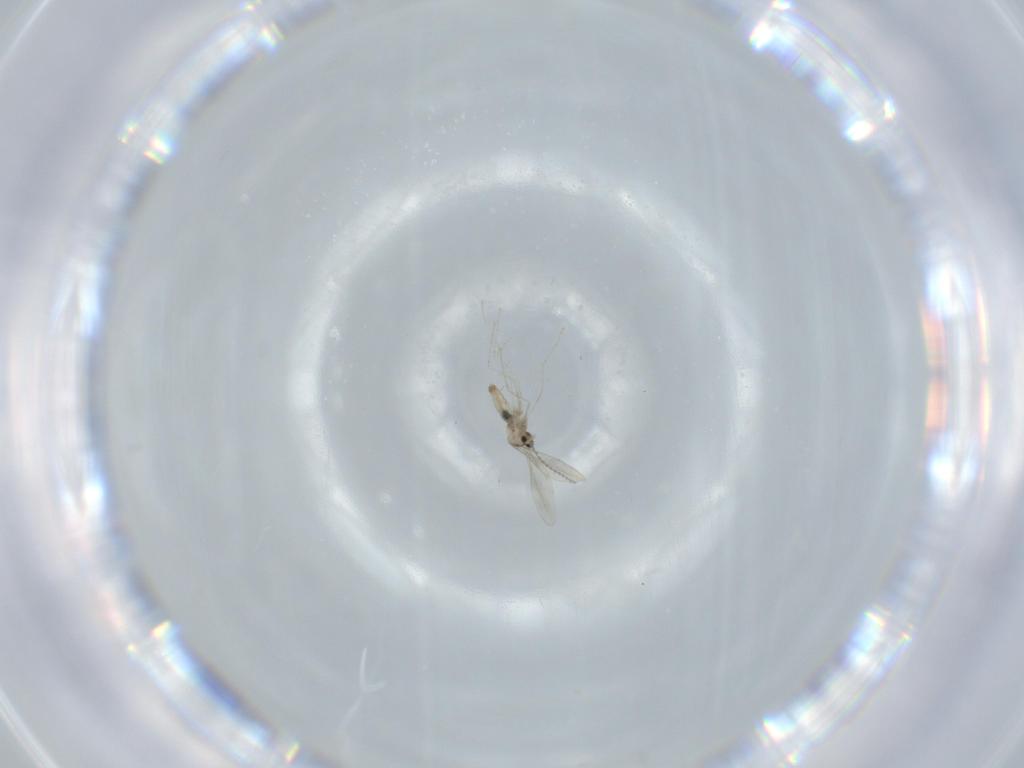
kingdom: Animalia
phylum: Arthropoda
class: Insecta
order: Diptera
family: Cecidomyiidae
